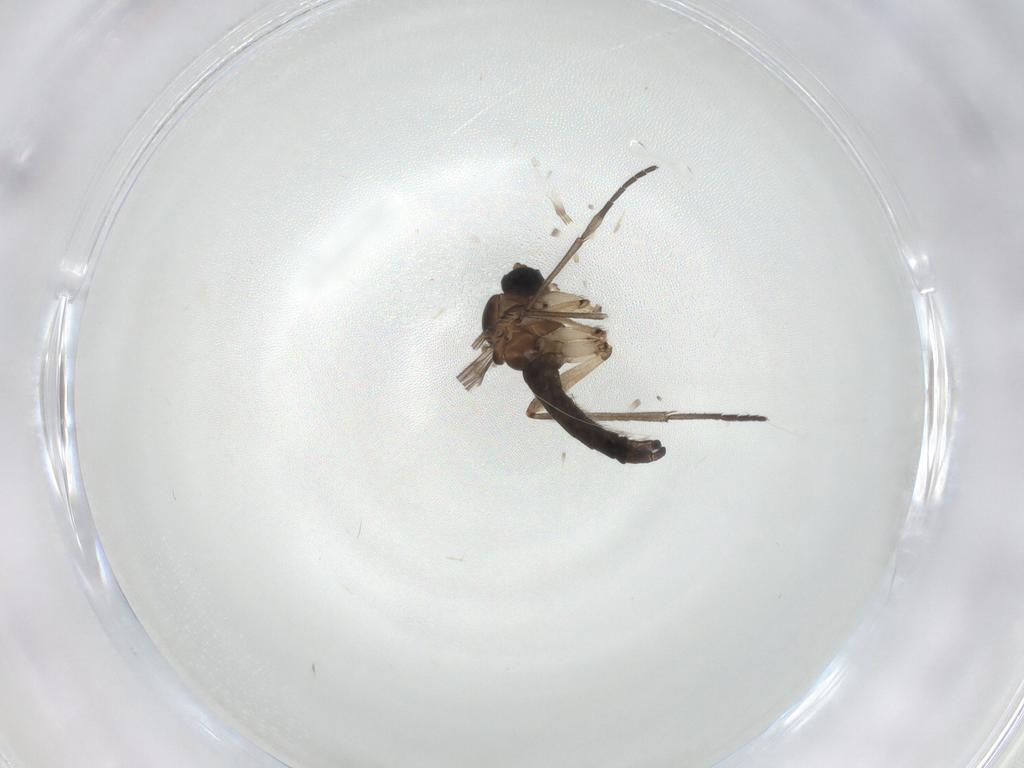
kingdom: Animalia
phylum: Arthropoda
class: Insecta
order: Diptera
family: Sciaridae
